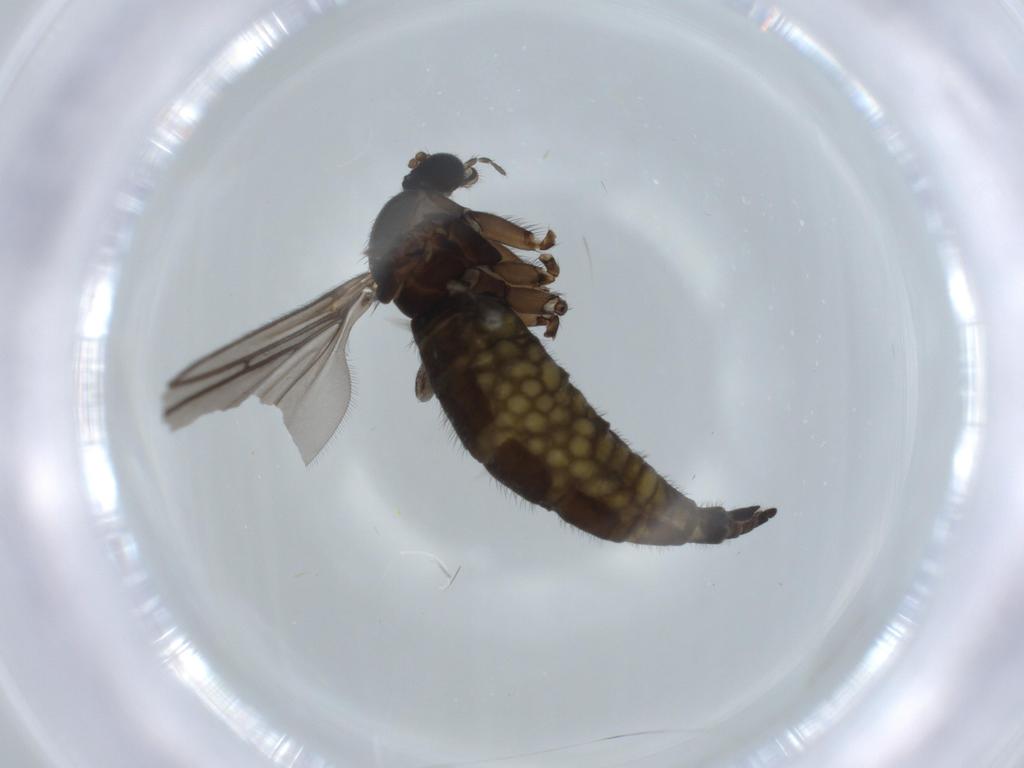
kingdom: Animalia
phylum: Arthropoda
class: Insecta
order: Diptera
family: Sciaridae
